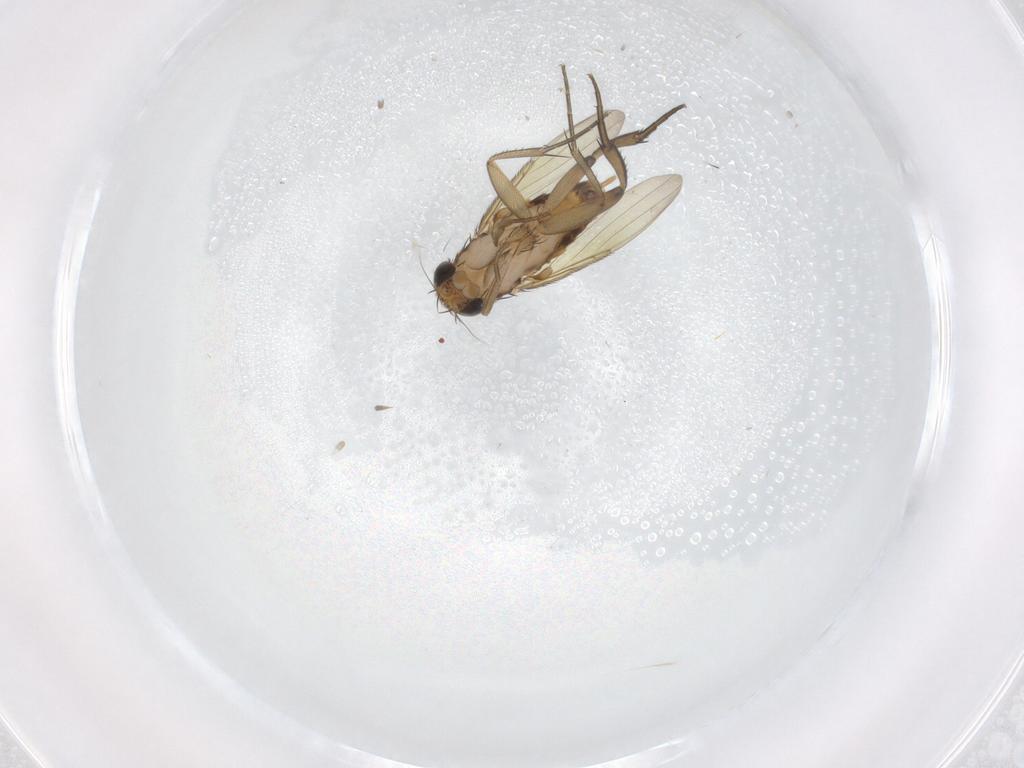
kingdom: Animalia
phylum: Arthropoda
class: Insecta
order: Diptera
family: Phoridae
